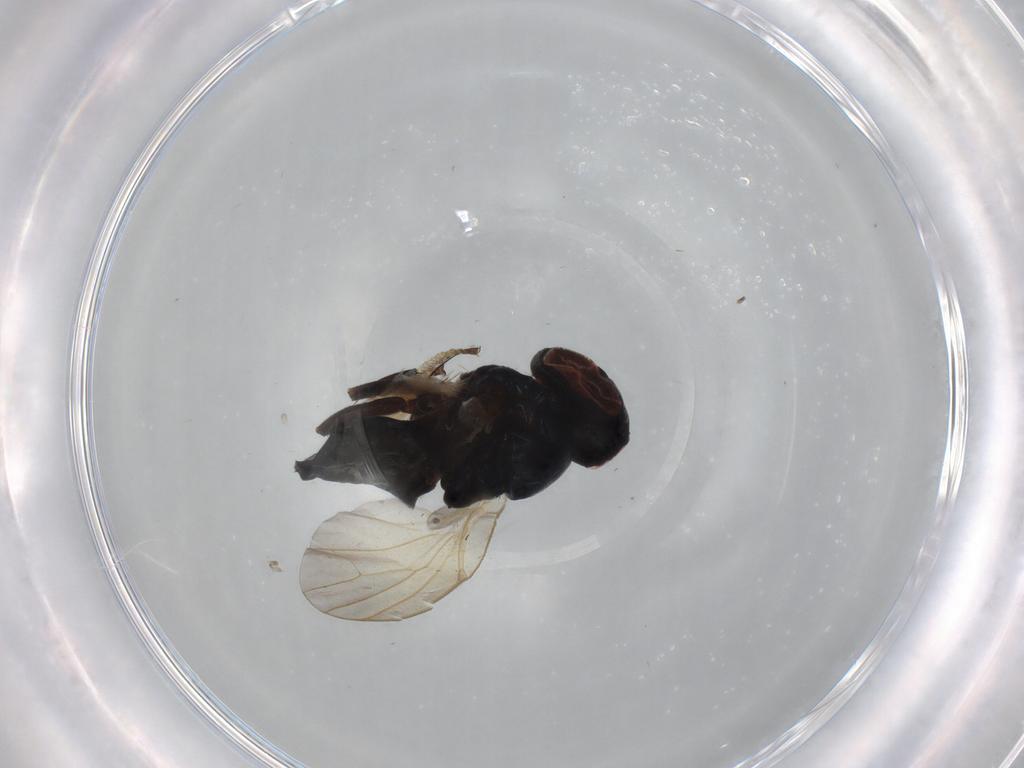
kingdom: Animalia
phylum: Arthropoda
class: Insecta
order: Diptera
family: Lonchaeidae
